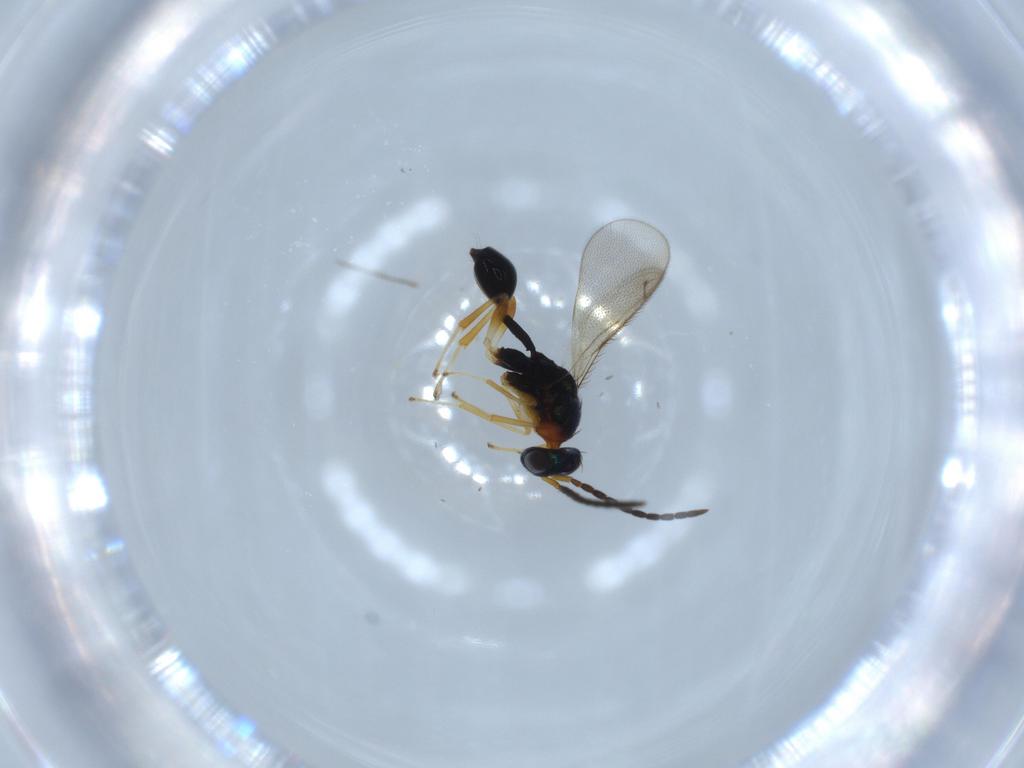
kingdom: Animalia
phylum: Arthropoda
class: Insecta
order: Hymenoptera
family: Diparidae
